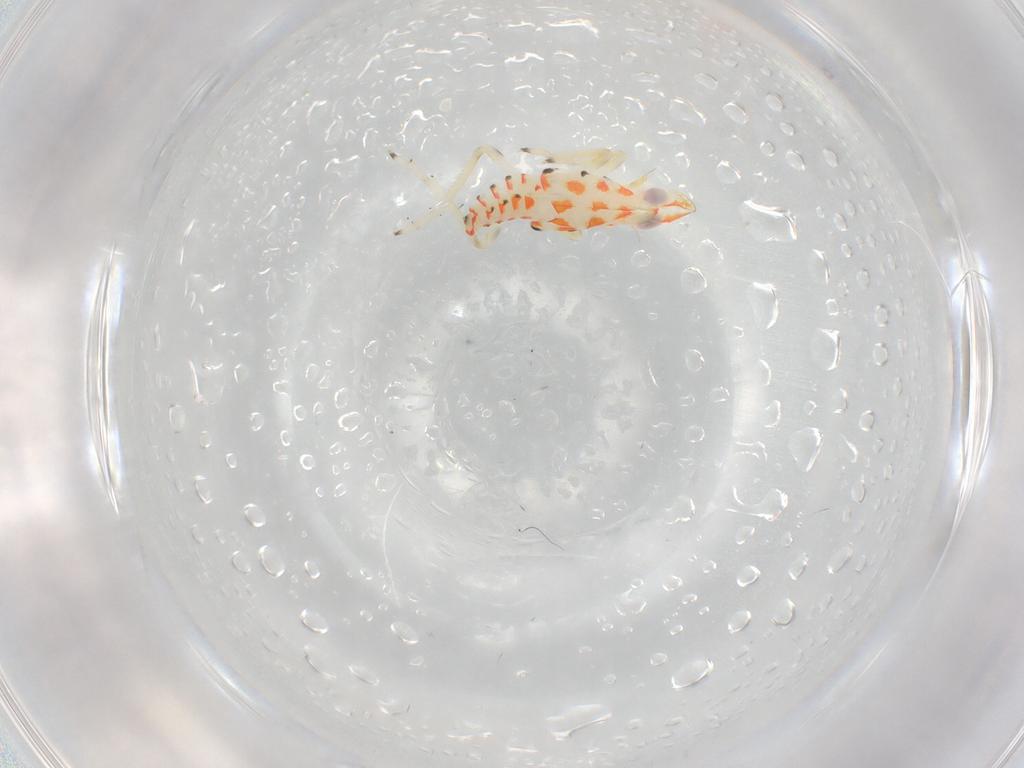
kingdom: Animalia
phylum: Arthropoda
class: Insecta
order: Hemiptera
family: Tropiduchidae
